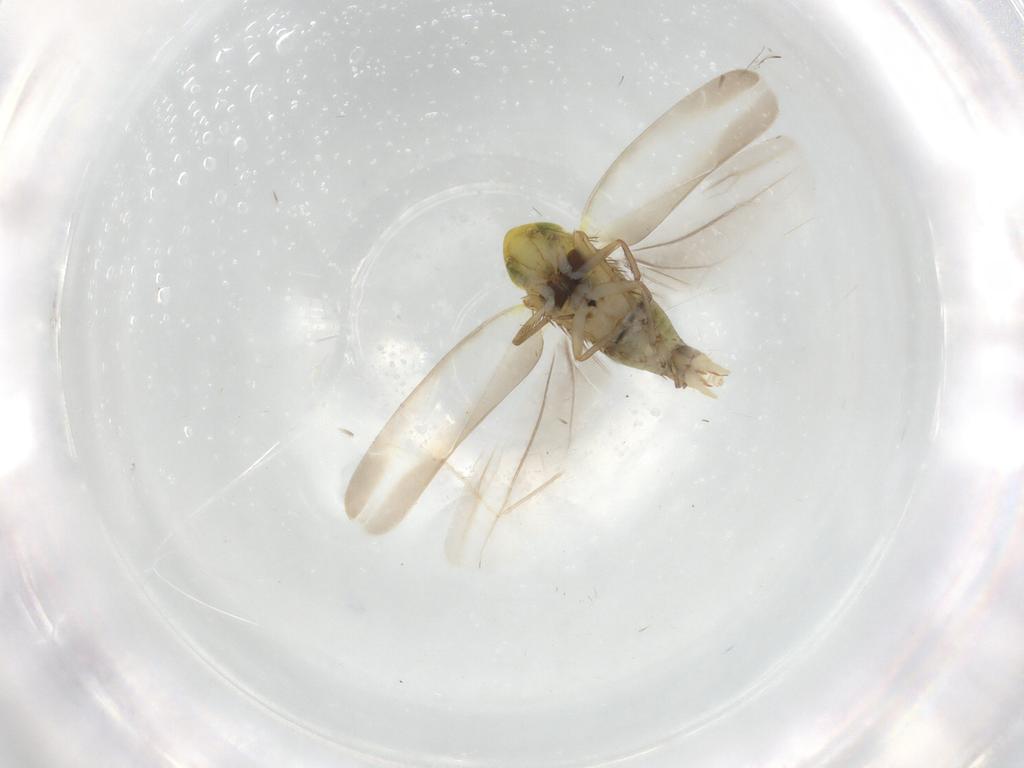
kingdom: Animalia
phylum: Arthropoda
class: Insecta
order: Hemiptera
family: Cicadellidae
